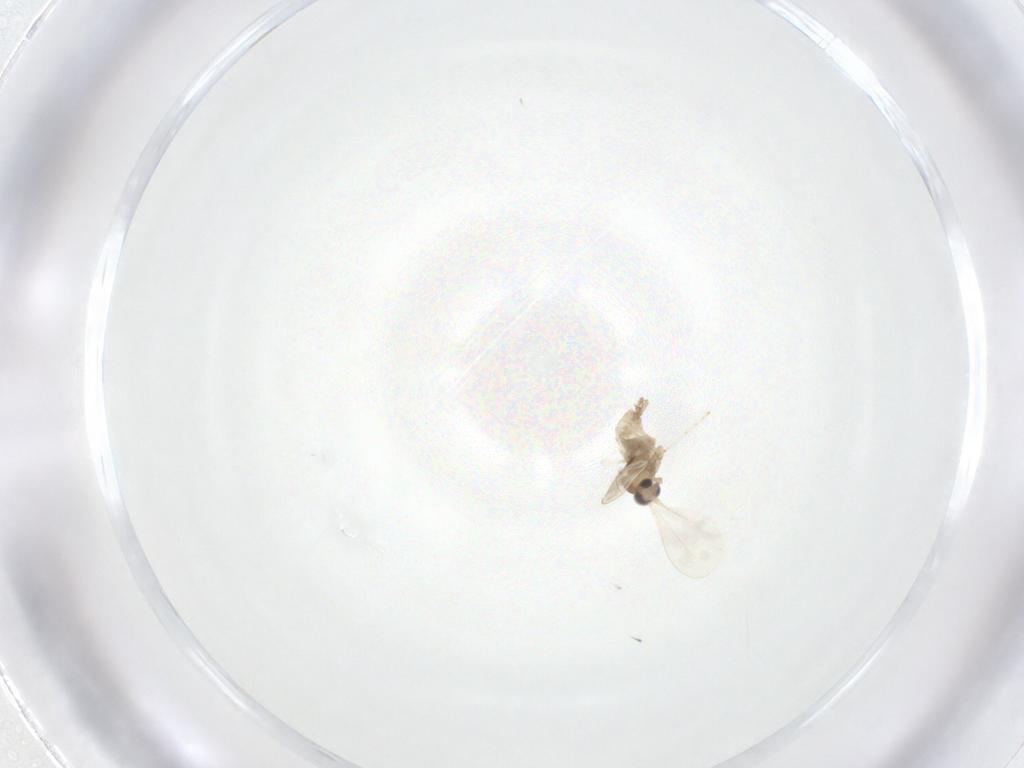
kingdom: Animalia
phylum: Arthropoda
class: Insecta
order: Diptera
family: Cecidomyiidae
